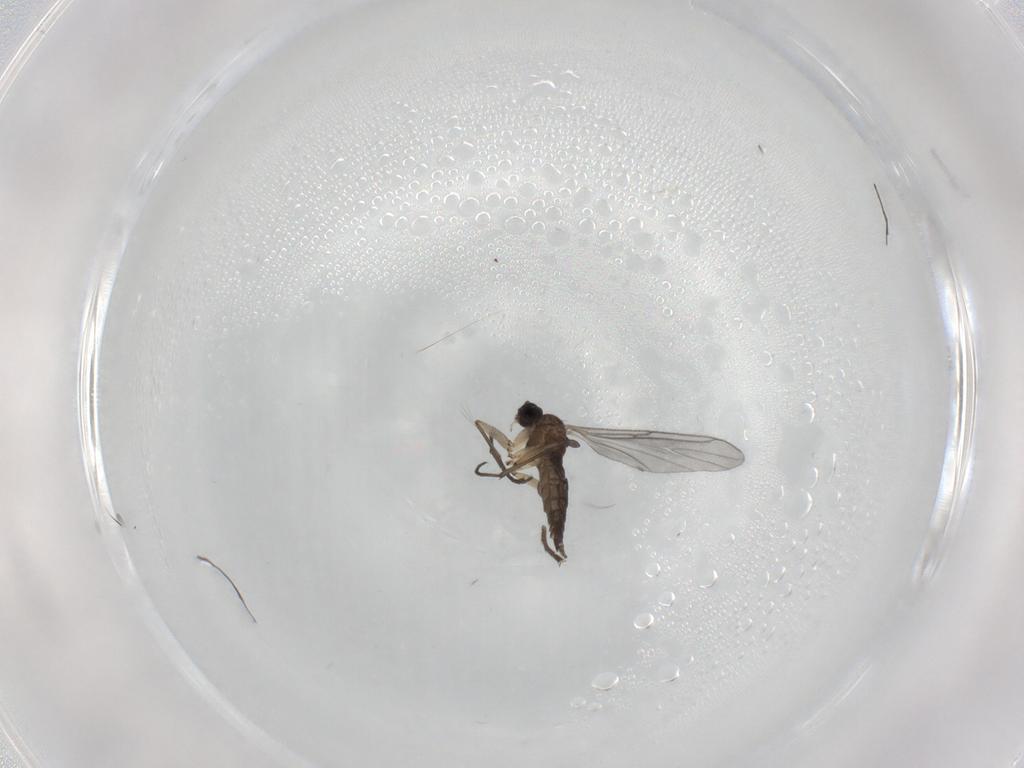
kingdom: Animalia
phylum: Arthropoda
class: Insecta
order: Diptera
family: Sciaridae
